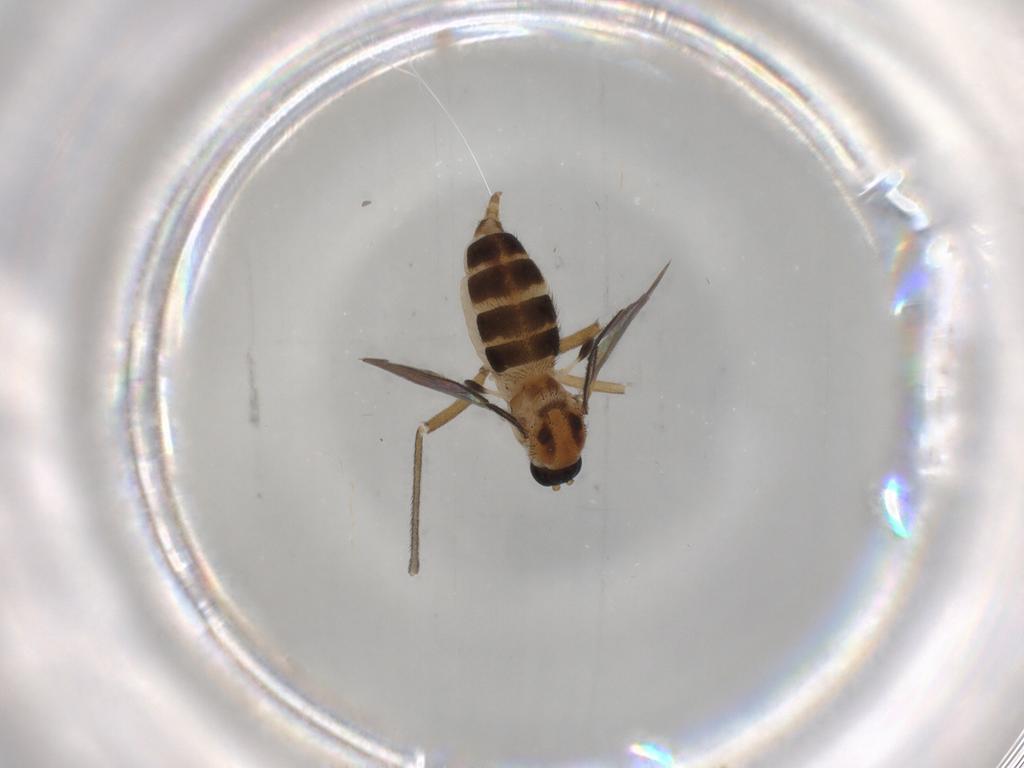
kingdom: Animalia
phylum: Arthropoda
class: Insecta
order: Diptera
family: Sciaridae
